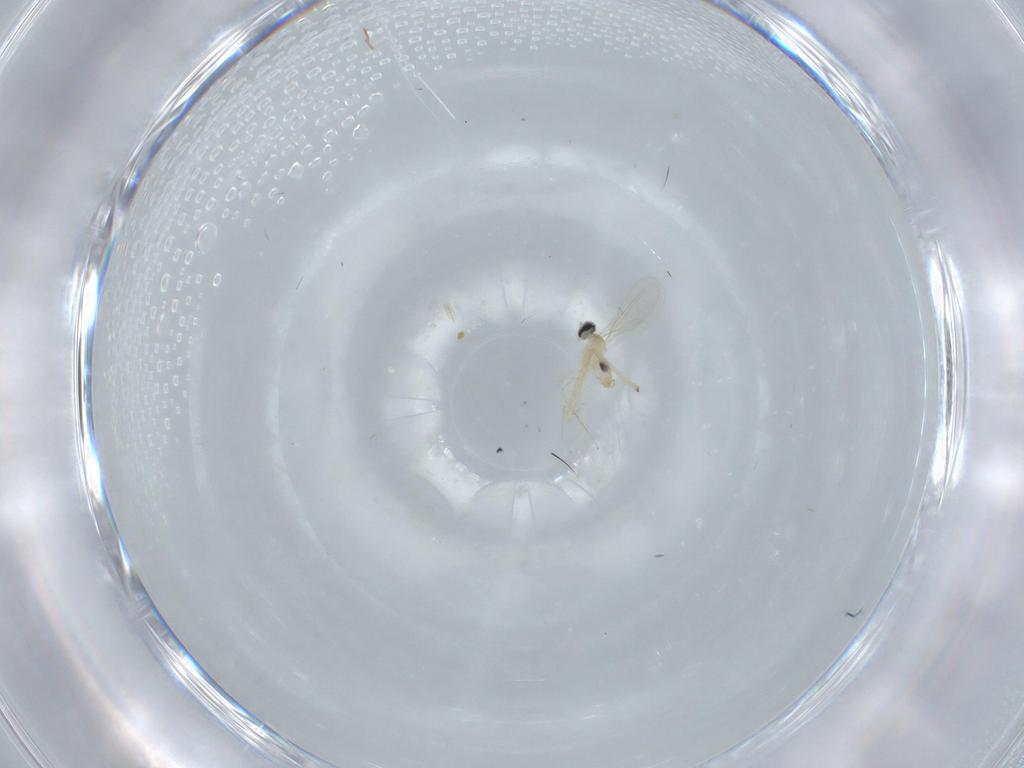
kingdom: Animalia
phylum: Arthropoda
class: Insecta
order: Diptera
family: Cecidomyiidae
